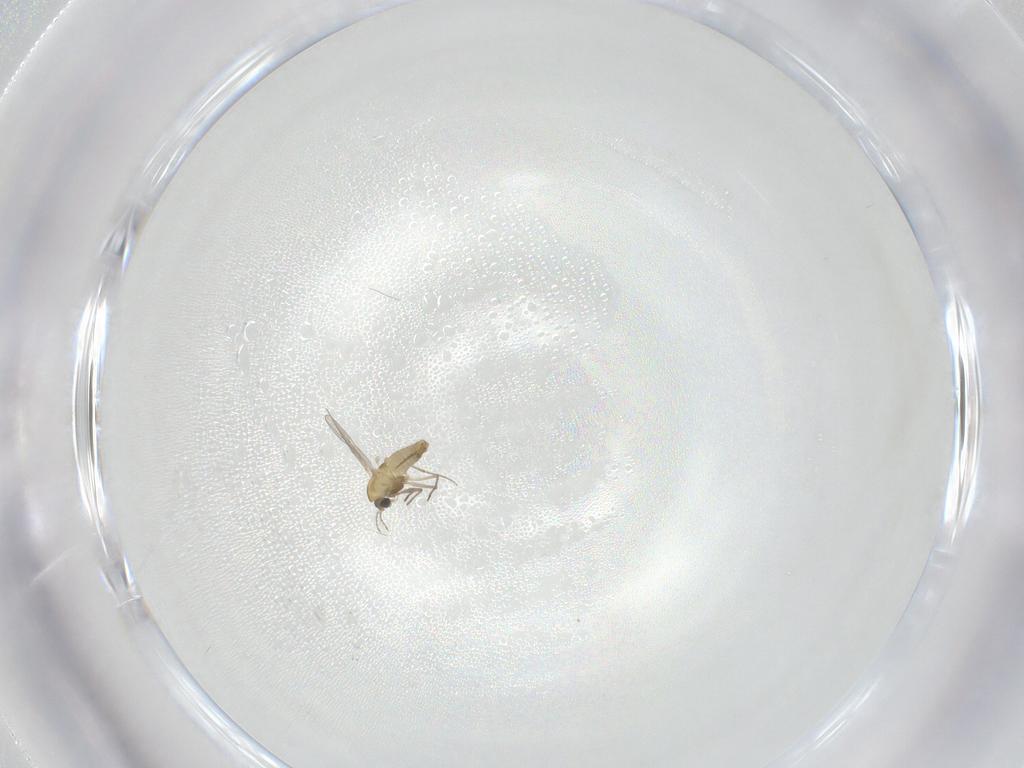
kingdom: Animalia
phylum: Arthropoda
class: Insecta
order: Diptera
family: Chironomidae
